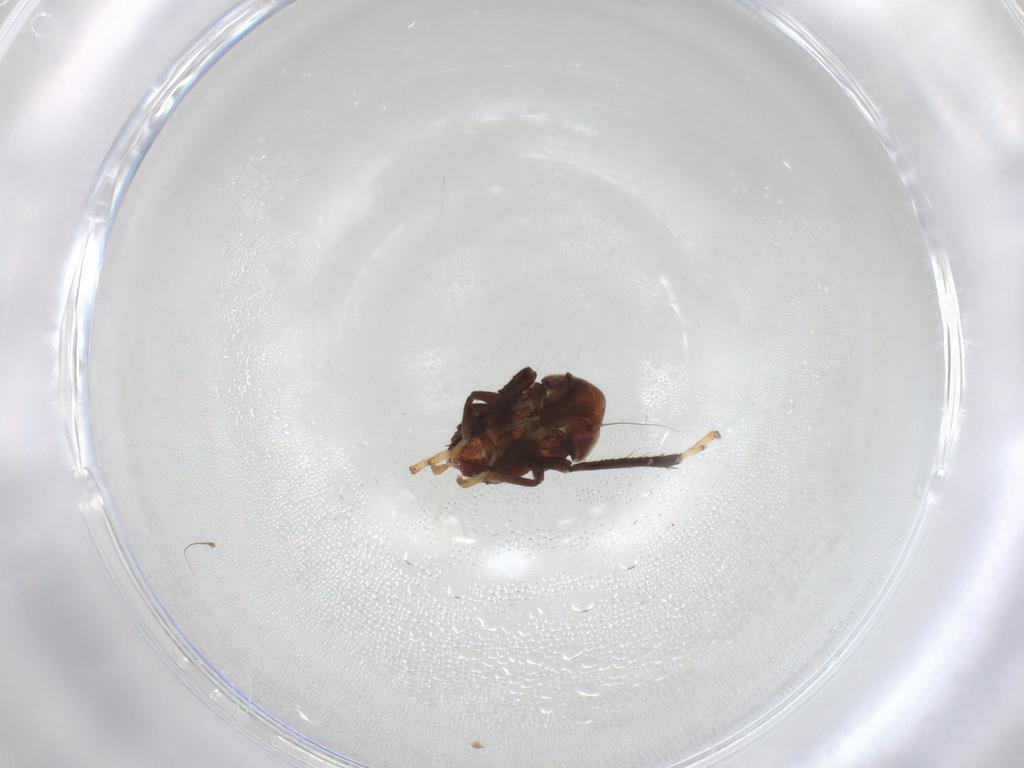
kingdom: Animalia
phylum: Arthropoda
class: Insecta
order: Hemiptera
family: Cicadellidae
